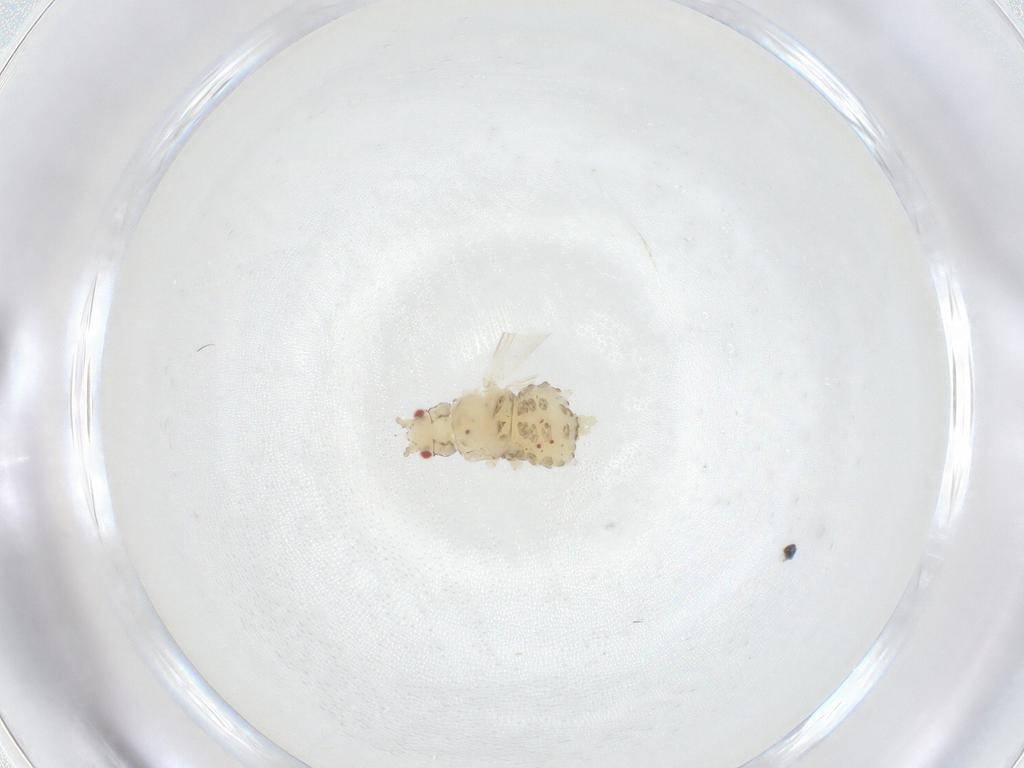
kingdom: Animalia
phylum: Arthropoda
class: Insecta
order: Hemiptera
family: Aphididae
